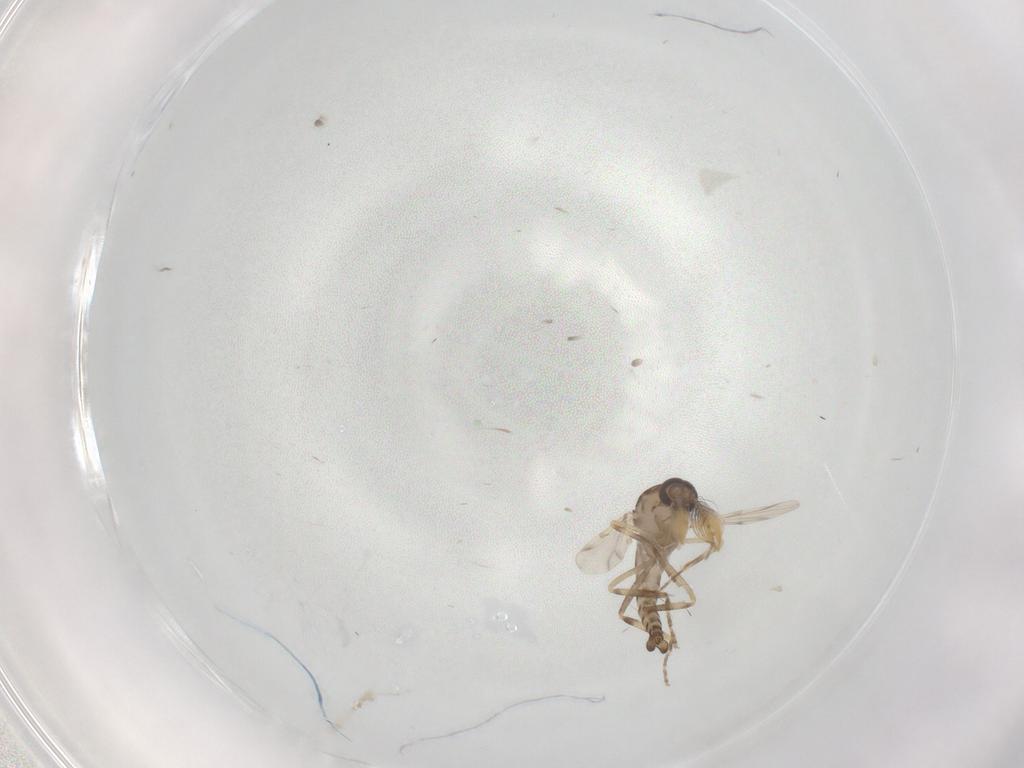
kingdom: Animalia
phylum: Arthropoda
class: Insecta
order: Diptera
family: Ceratopogonidae
